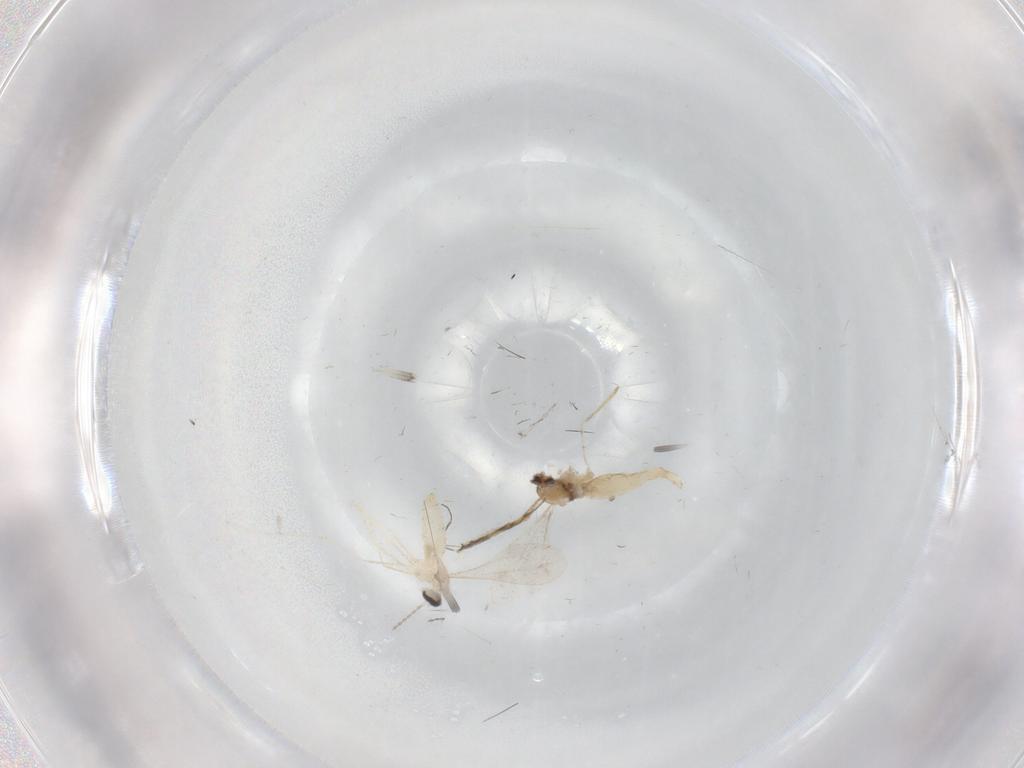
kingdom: Animalia
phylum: Arthropoda
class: Insecta
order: Diptera
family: Cecidomyiidae
